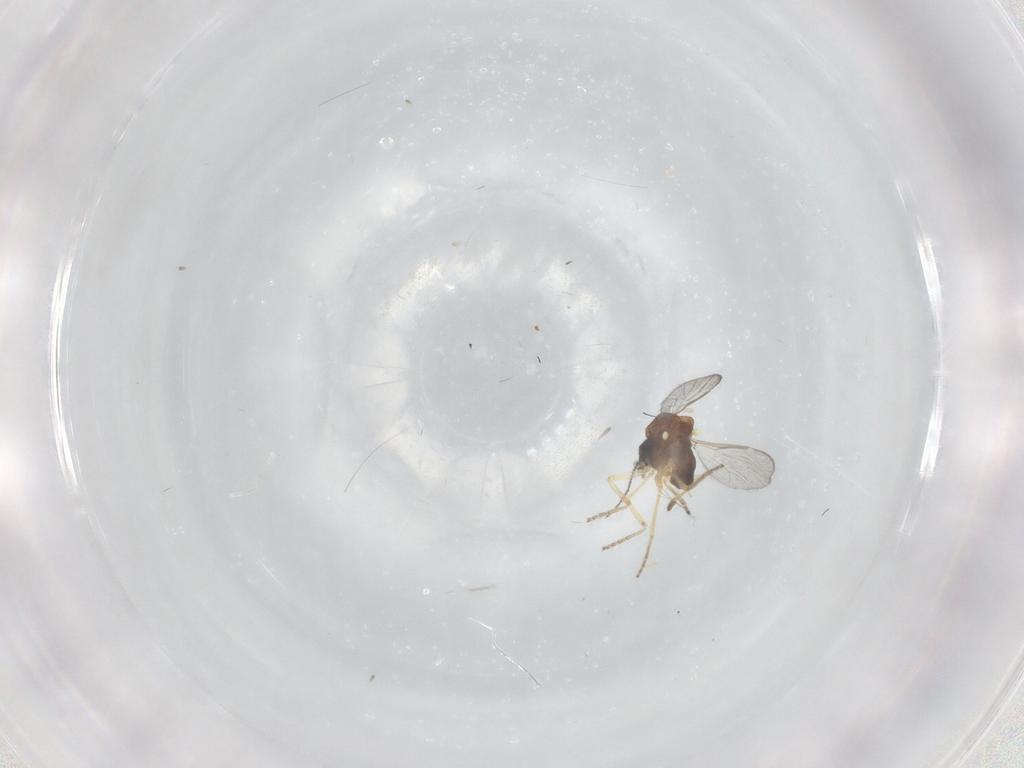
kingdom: Animalia
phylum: Arthropoda
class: Insecta
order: Diptera
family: Ceratopogonidae
